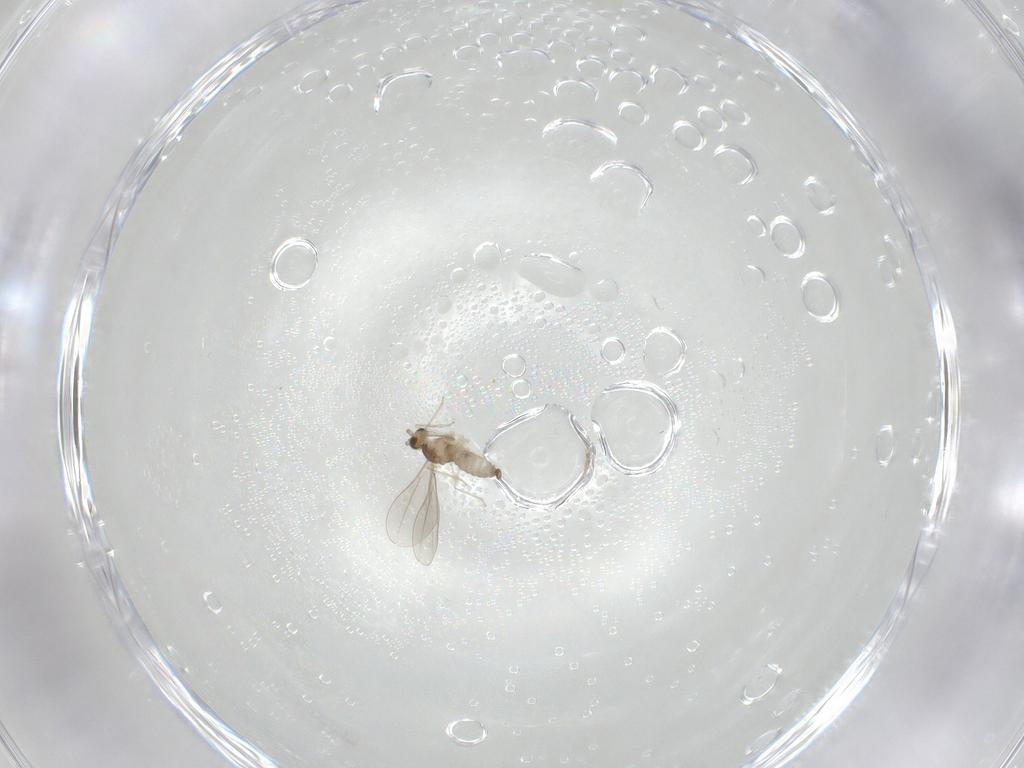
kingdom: Animalia
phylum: Arthropoda
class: Insecta
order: Diptera
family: Cecidomyiidae
